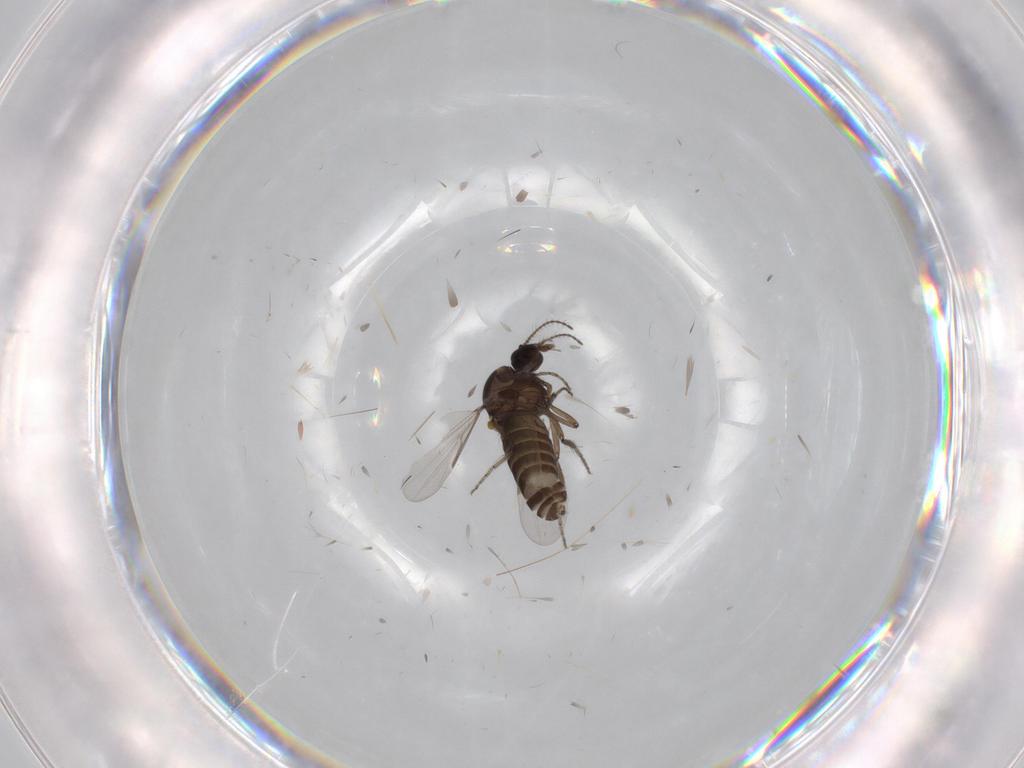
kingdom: Animalia
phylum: Arthropoda
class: Insecta
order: Diptera
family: Ceratopogonidae
